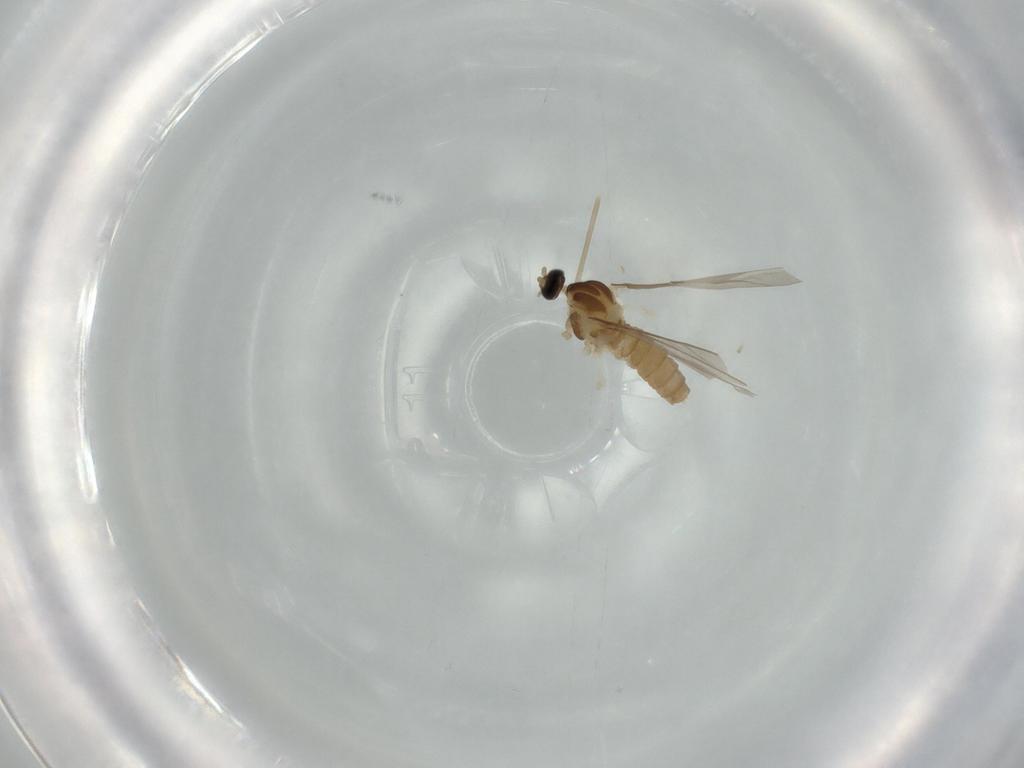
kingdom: Animalia
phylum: Arthropoda
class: Insecta
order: Diptera
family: Cecidomyiidae
